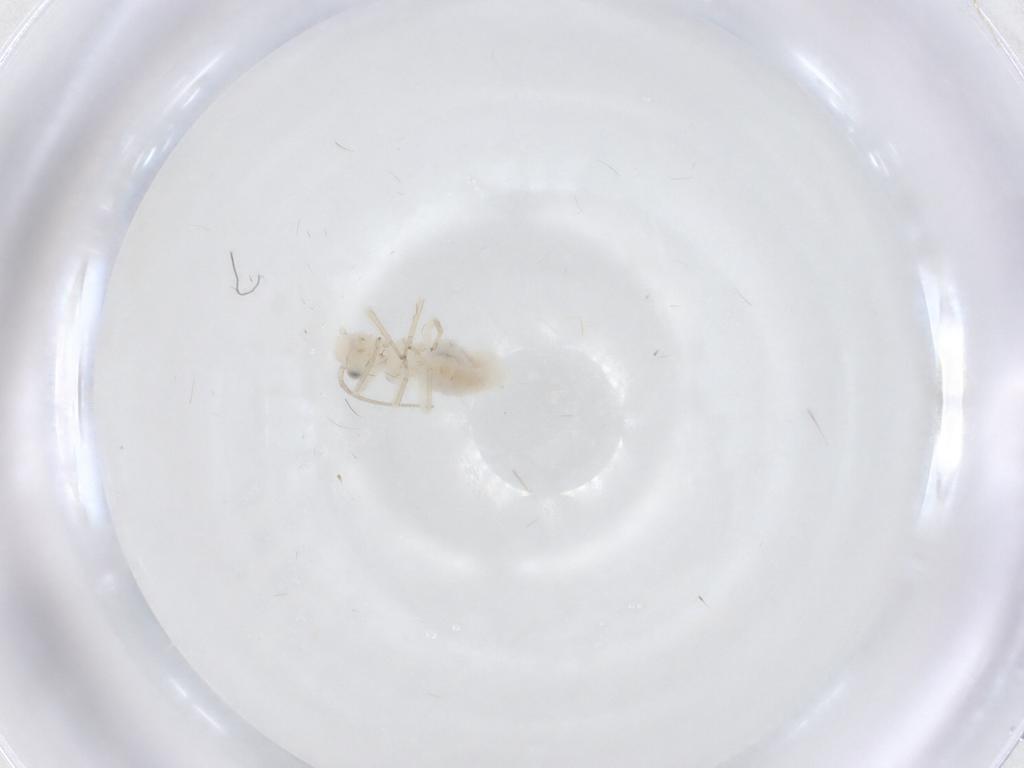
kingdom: Animalia
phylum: Arthropoda
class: Insecta
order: Psocodea
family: Caeciliusidae
